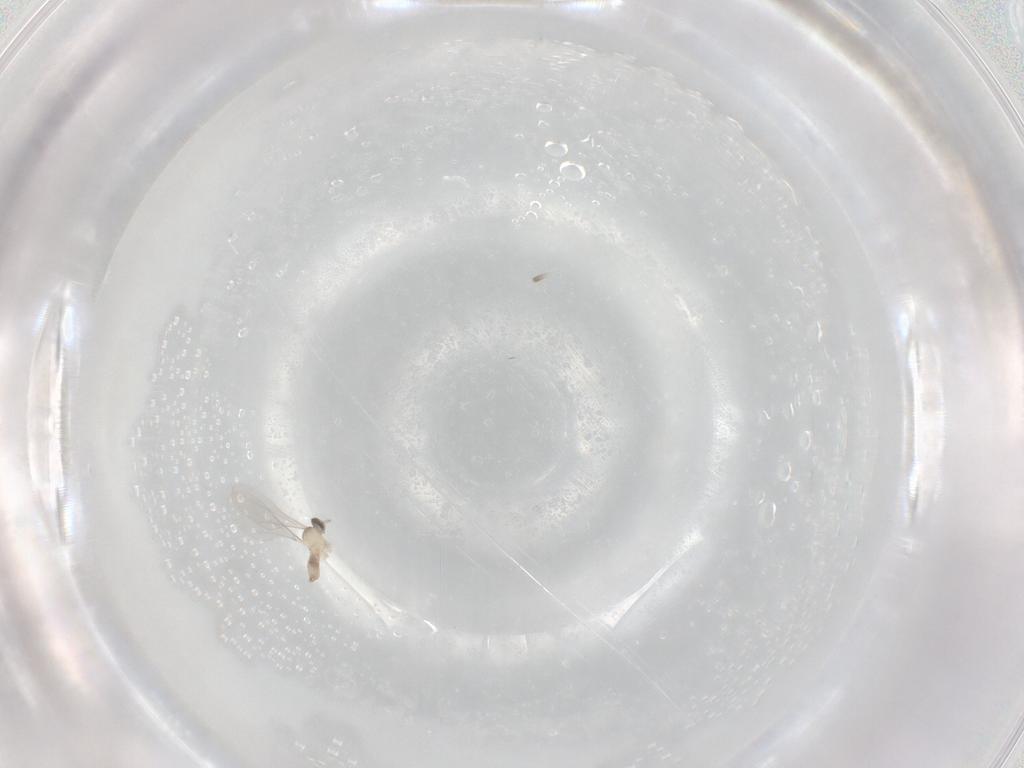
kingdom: Animalia
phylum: Arthropoda
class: Insecta
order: Diptera
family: Cecidomyiidae
